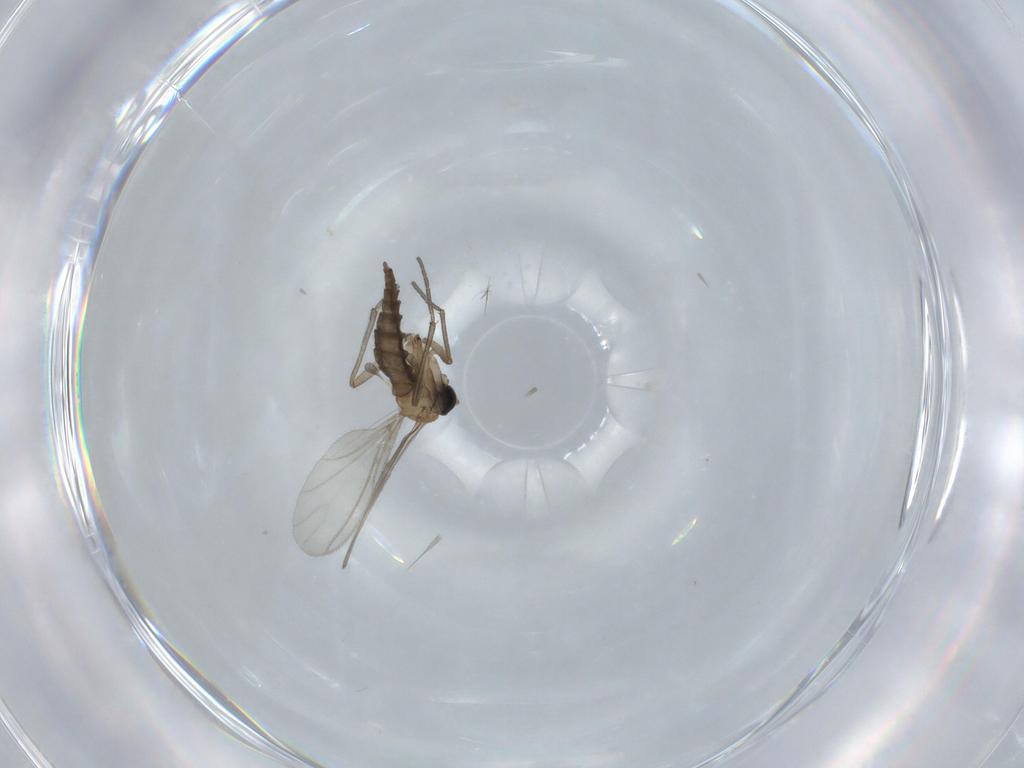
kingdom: Animalia
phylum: Arthropoda
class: Insecta
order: Diptera
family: Sciaridae
